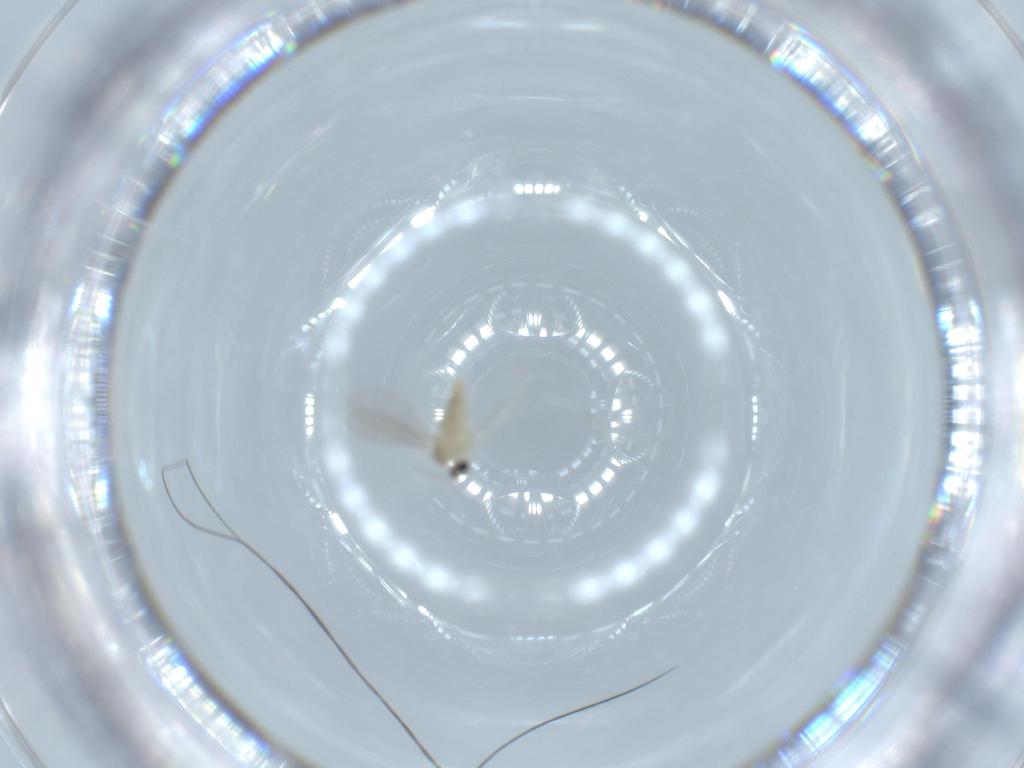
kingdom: Animalia
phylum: Arthropoda
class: Insecta
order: Diptera
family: Cecidomyiidae
